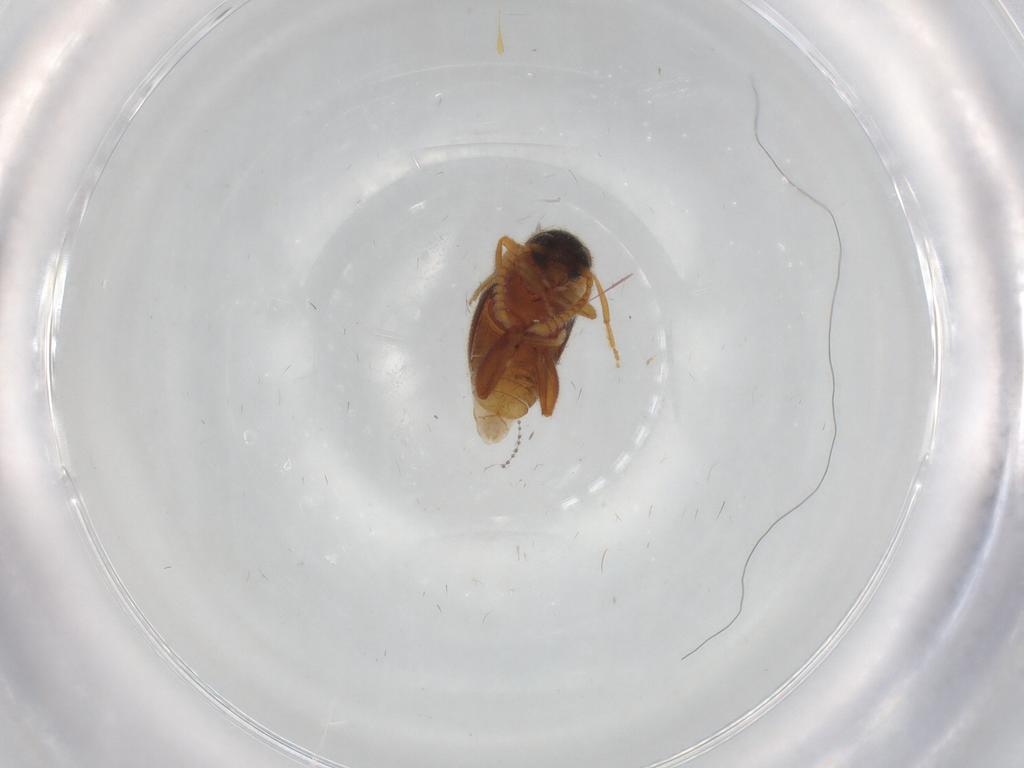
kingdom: Animalia
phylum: Arthropoda
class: Insecta
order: Coleoptera
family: Aderidae
